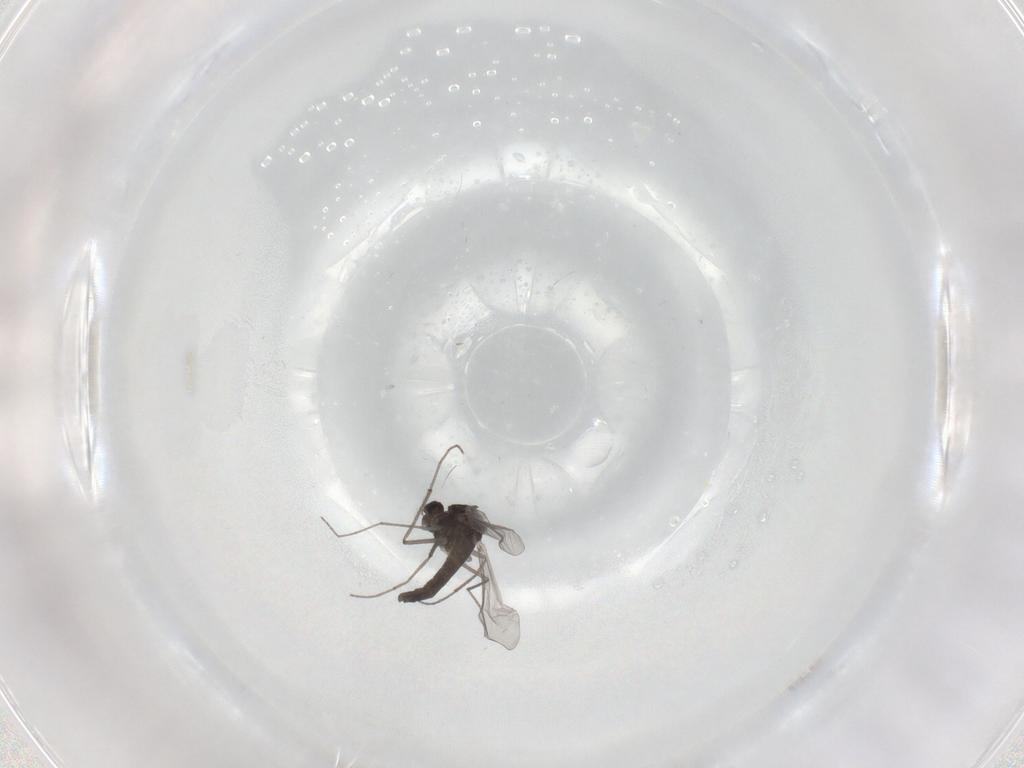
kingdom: Animalia
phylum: Arthropoda
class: Insecta
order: Diptera
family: Chironomidae
